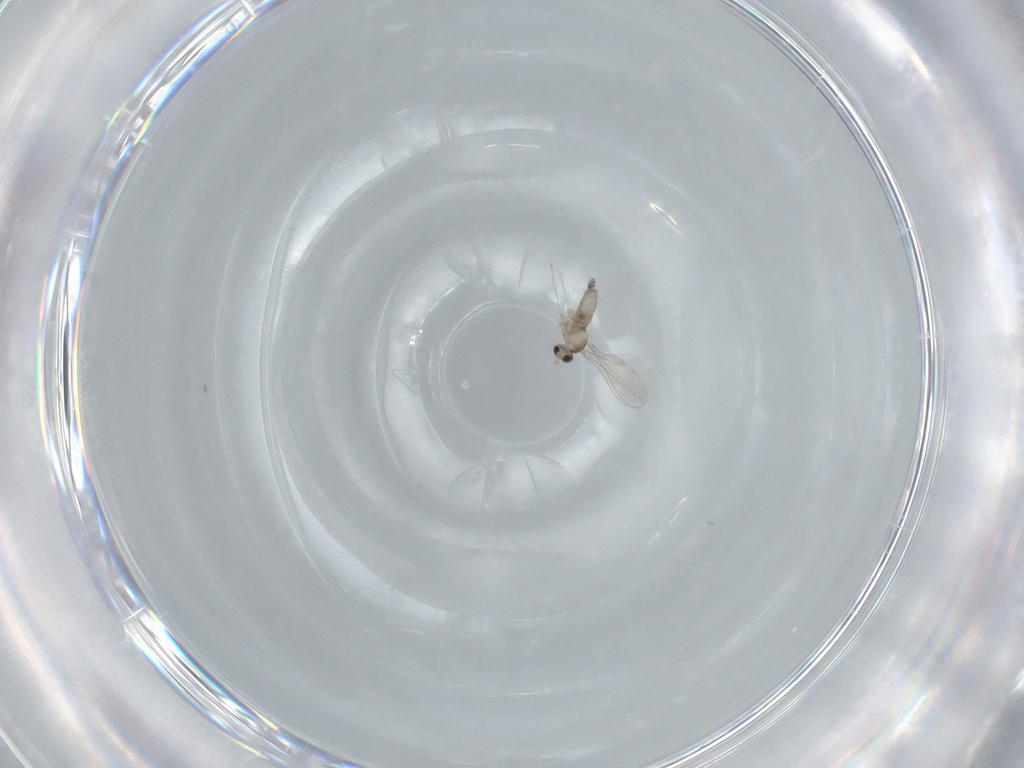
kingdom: Animalia
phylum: Arthropoda
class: Insecta
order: Diptera
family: Cecidomyiidae
